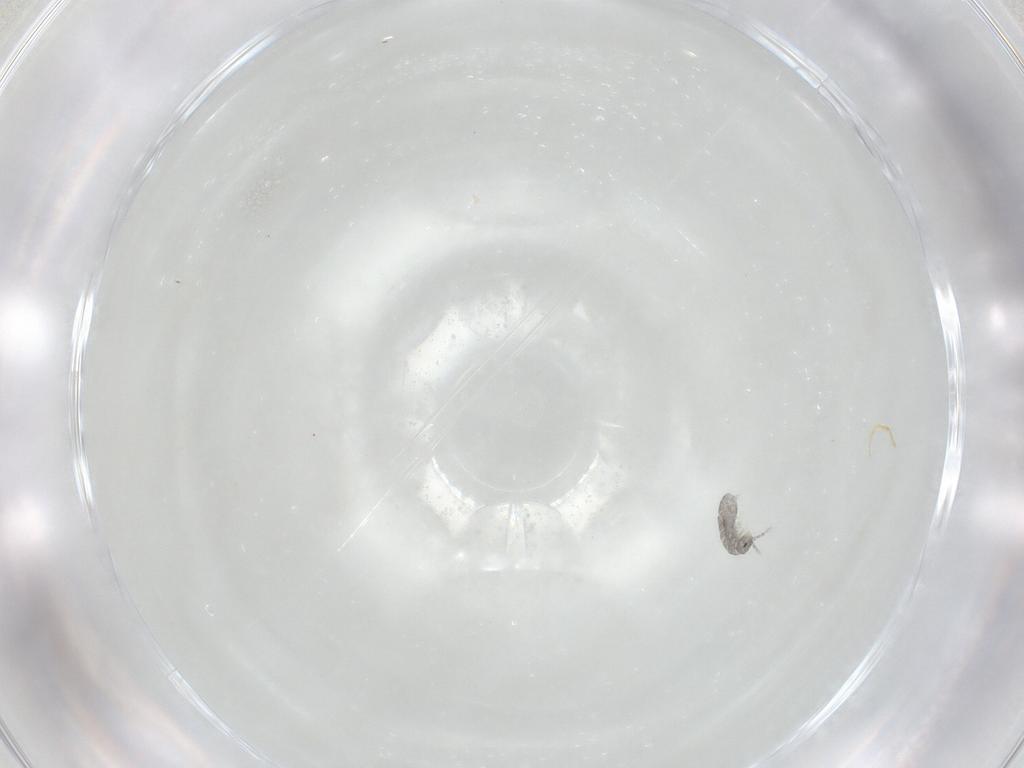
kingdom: Animalia
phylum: Arthropoda
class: Collembola
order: Entomobryomorpha
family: Isotomidae
